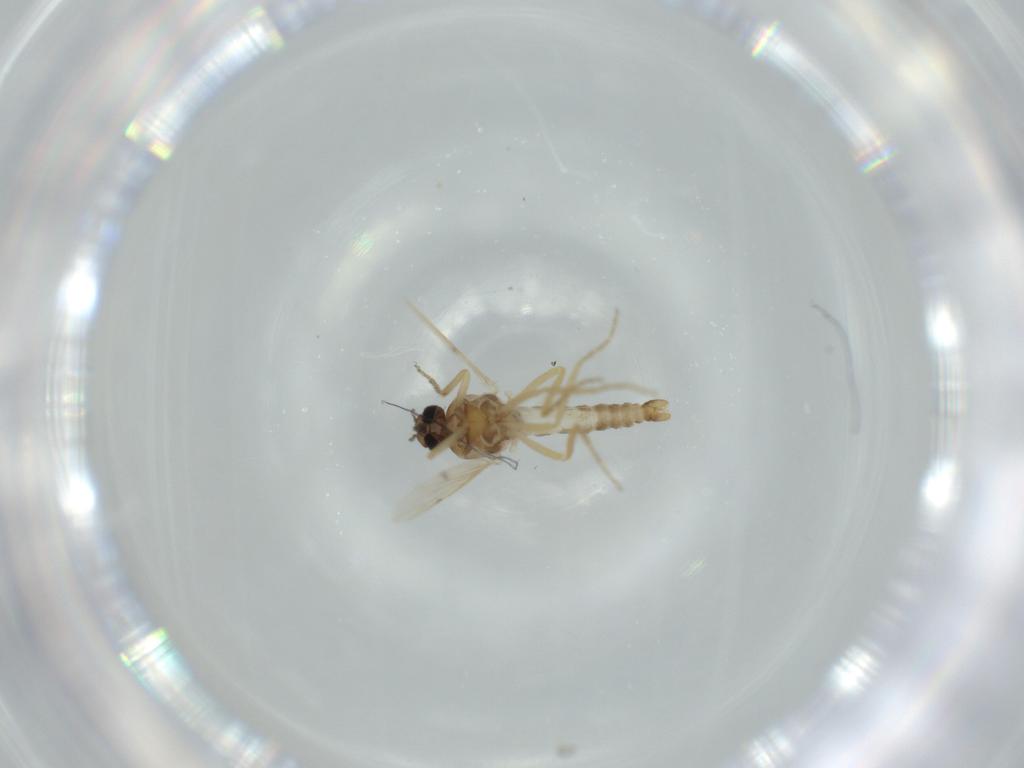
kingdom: Animalia
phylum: Arthropoda
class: Insecta
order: Diptera
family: Ceratopogonidae
